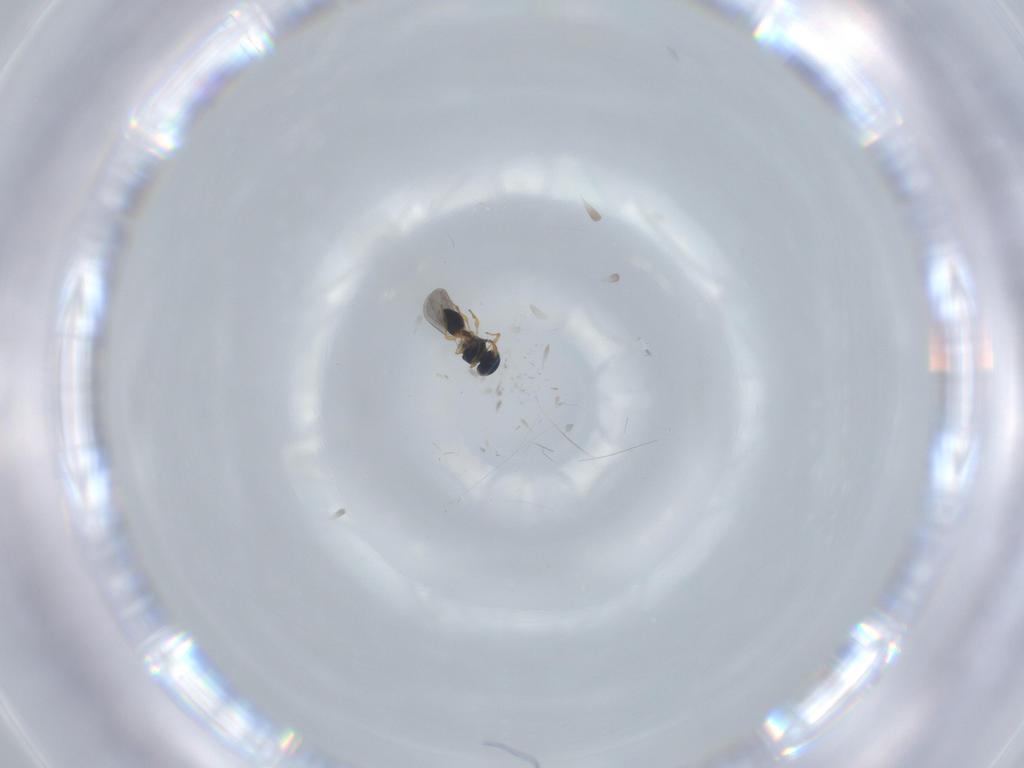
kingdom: Animalia
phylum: Arthropoda
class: Insecta
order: Hymenoptera
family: Platygastridae
